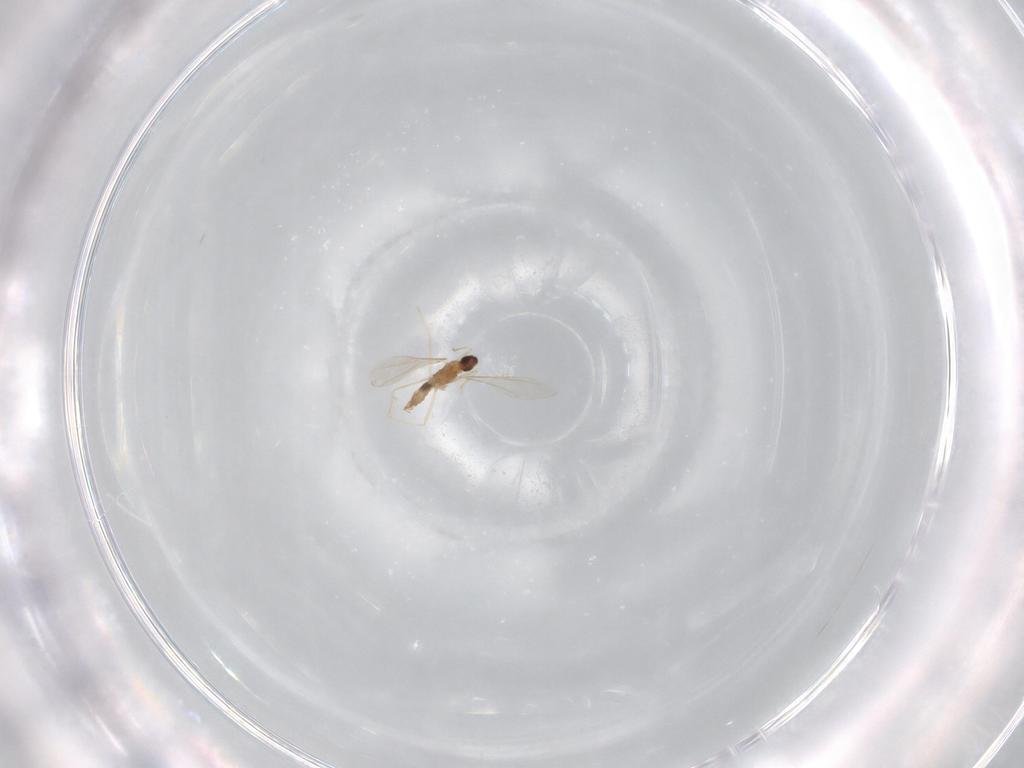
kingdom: Animalia
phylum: Arthropoda
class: Insecta
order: Diptera
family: Cecidomyiidae
